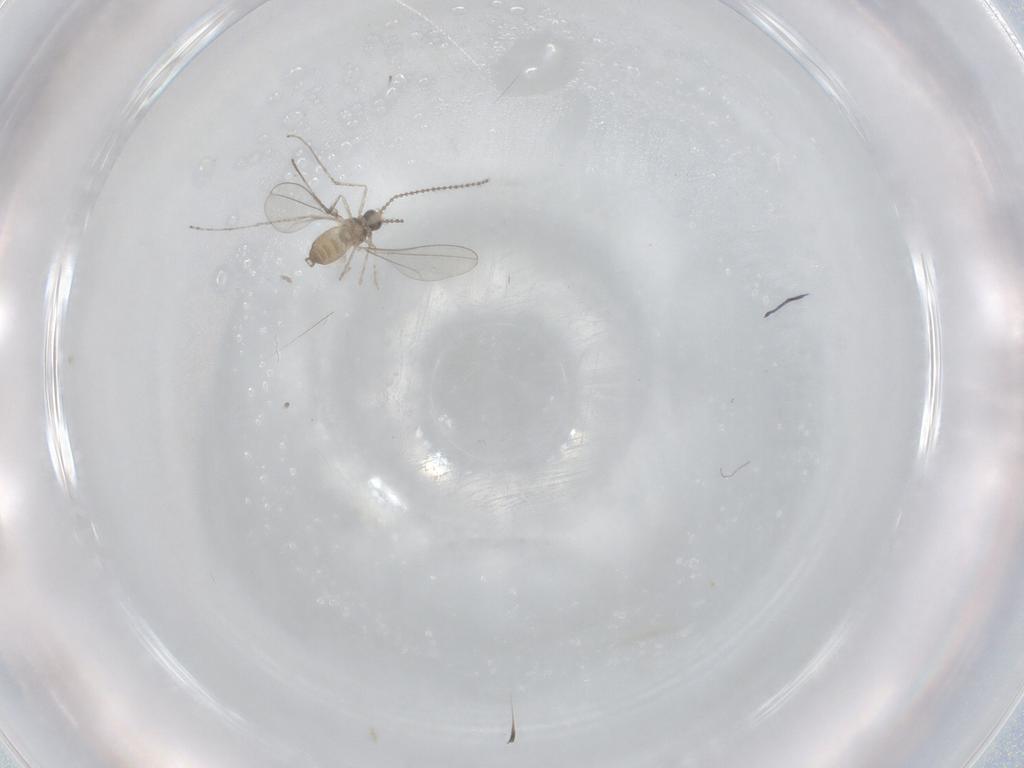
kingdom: Animalia
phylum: Arthropoda
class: Insecta
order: Diptera
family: Cecidomyiidae
